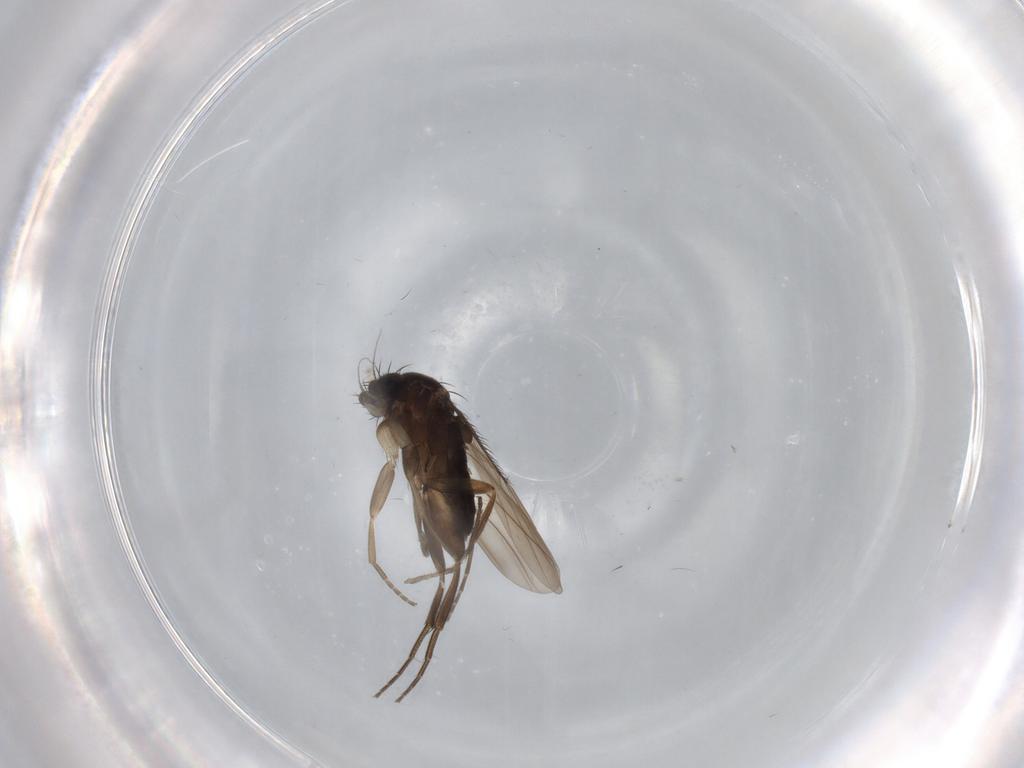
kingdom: Animalia
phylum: Arthropoda
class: Insecta
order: Diptera
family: Phoridae
